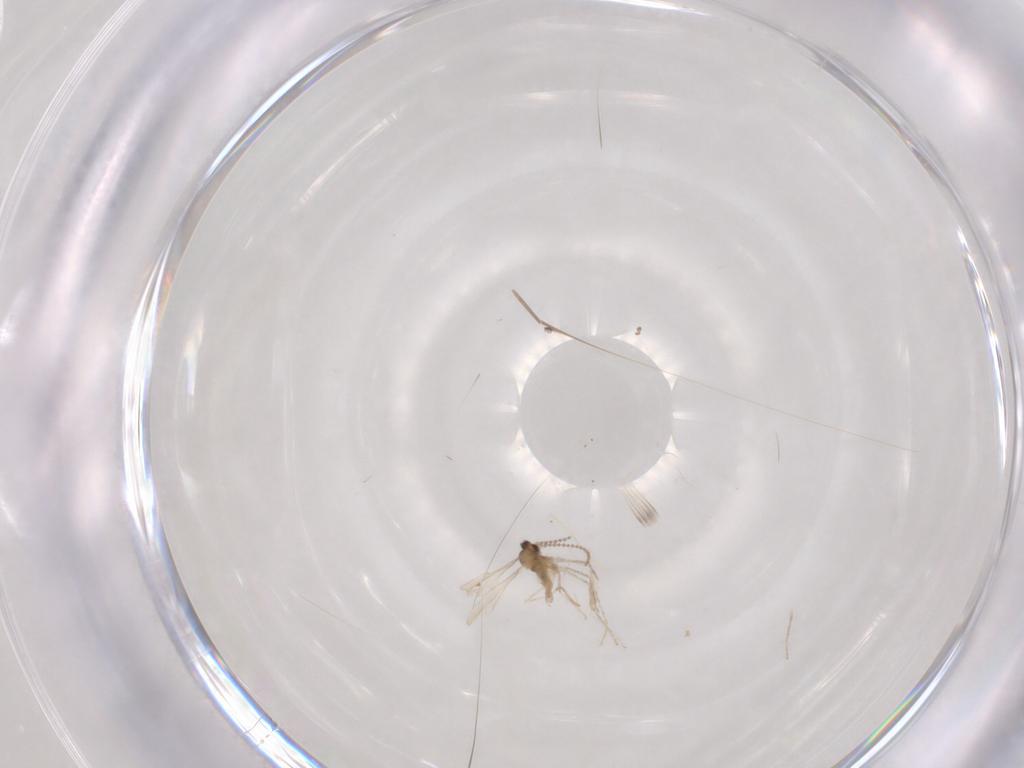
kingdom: Animalia
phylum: Arthropoda
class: Insecta
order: Diptera
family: Cecidomyiidae
